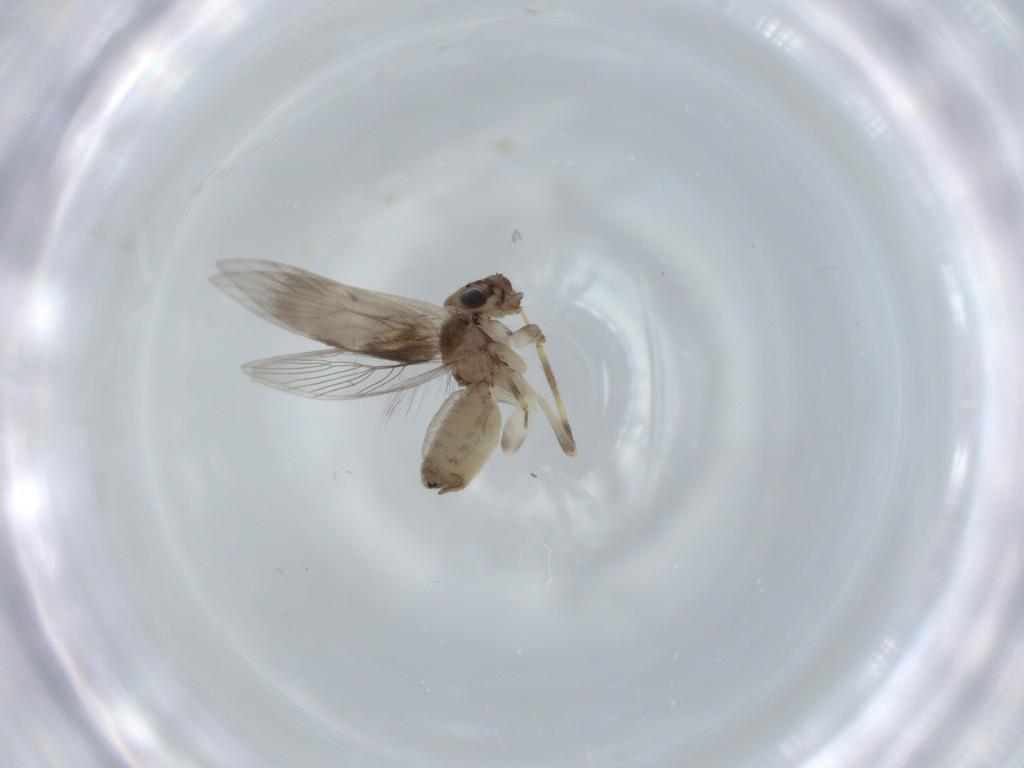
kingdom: Animalia
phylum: Arthropoda
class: Insecta
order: Psocodea
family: Lepidopsocidae
